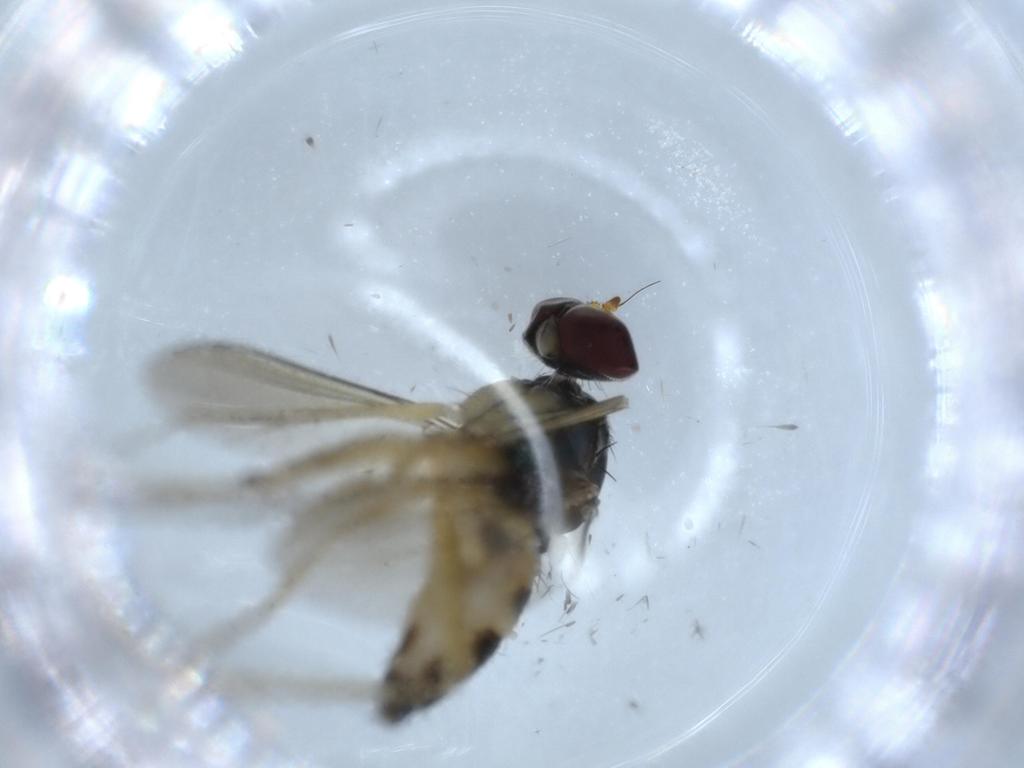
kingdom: Animalia
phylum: Arthropoda
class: Insecta
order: Diptera
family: Dolichopodidae
